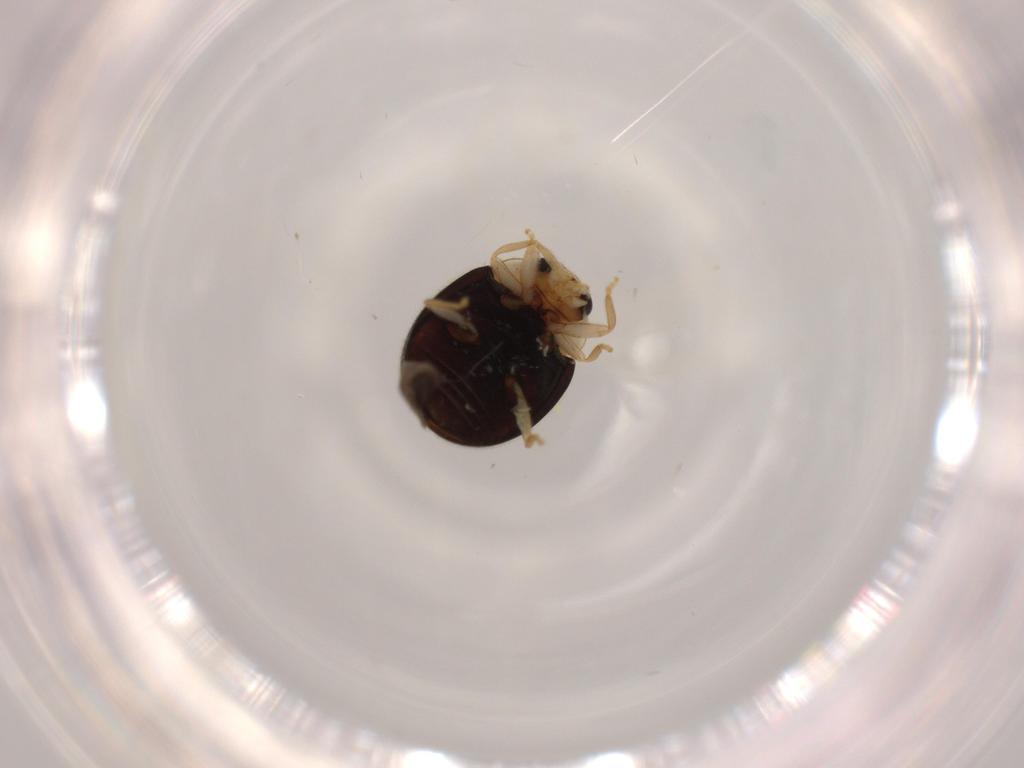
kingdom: Animalia
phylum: Arthropoda
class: Insecta
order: Coleoptera
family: Coccinellidae
